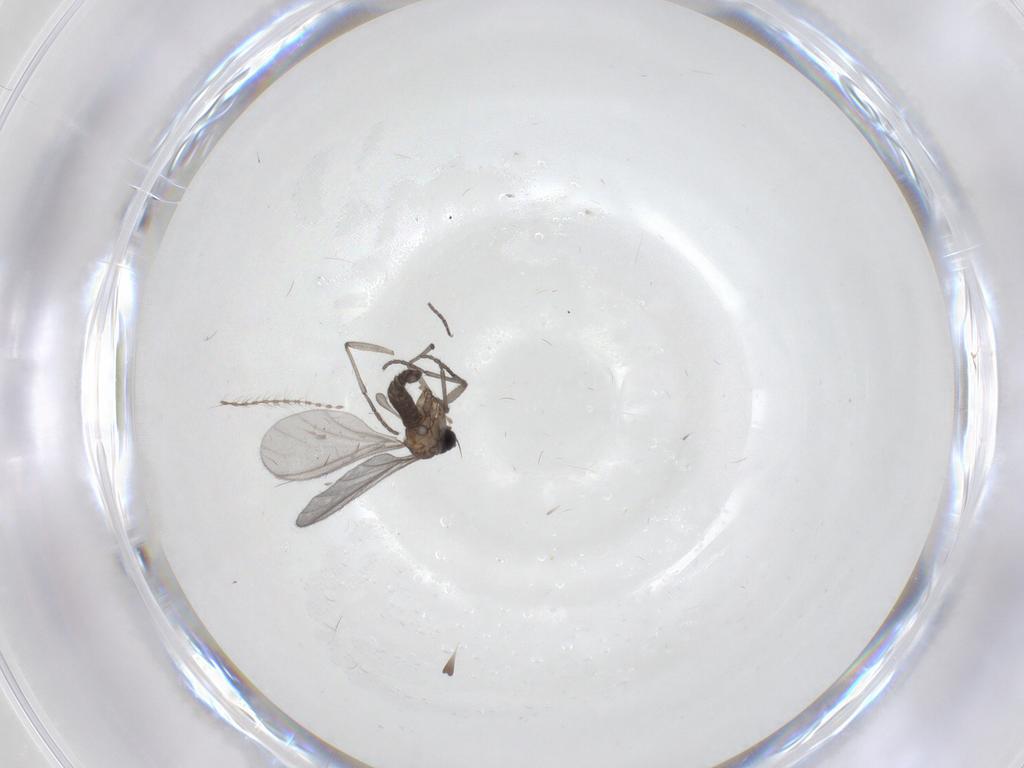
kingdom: Animalia
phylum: Arthropoda
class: Insecta
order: Diptera
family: Sciaridae
